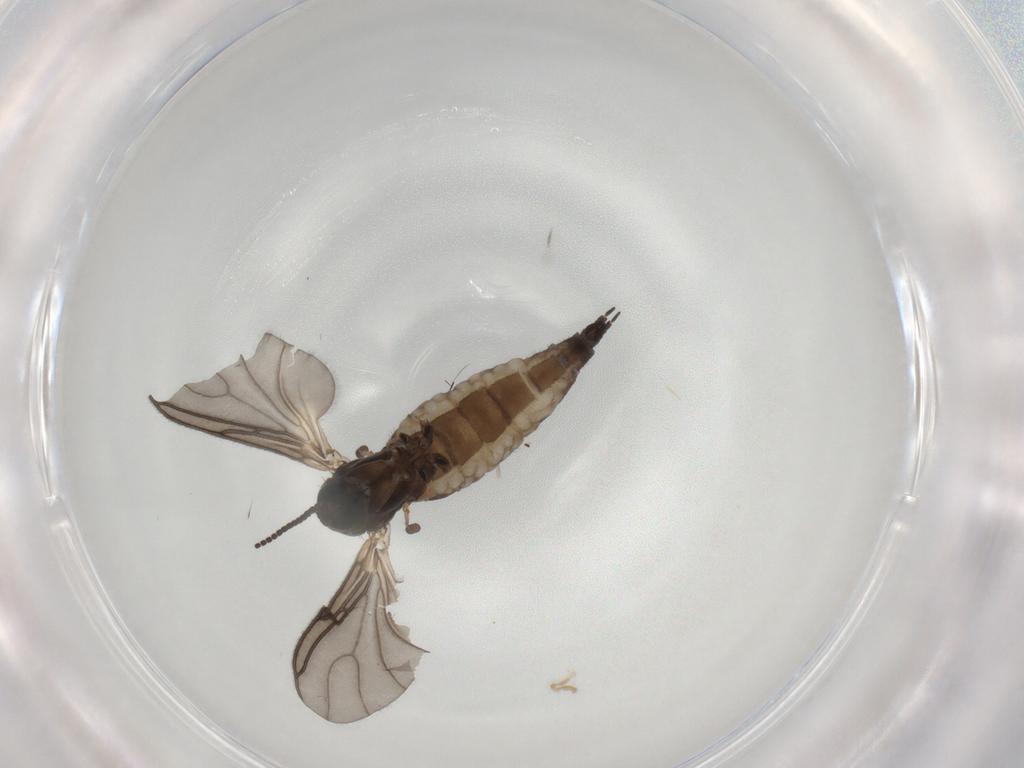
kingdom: Animalia
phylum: Arthropoda
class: Insecta
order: Diptera
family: Sciaridae
